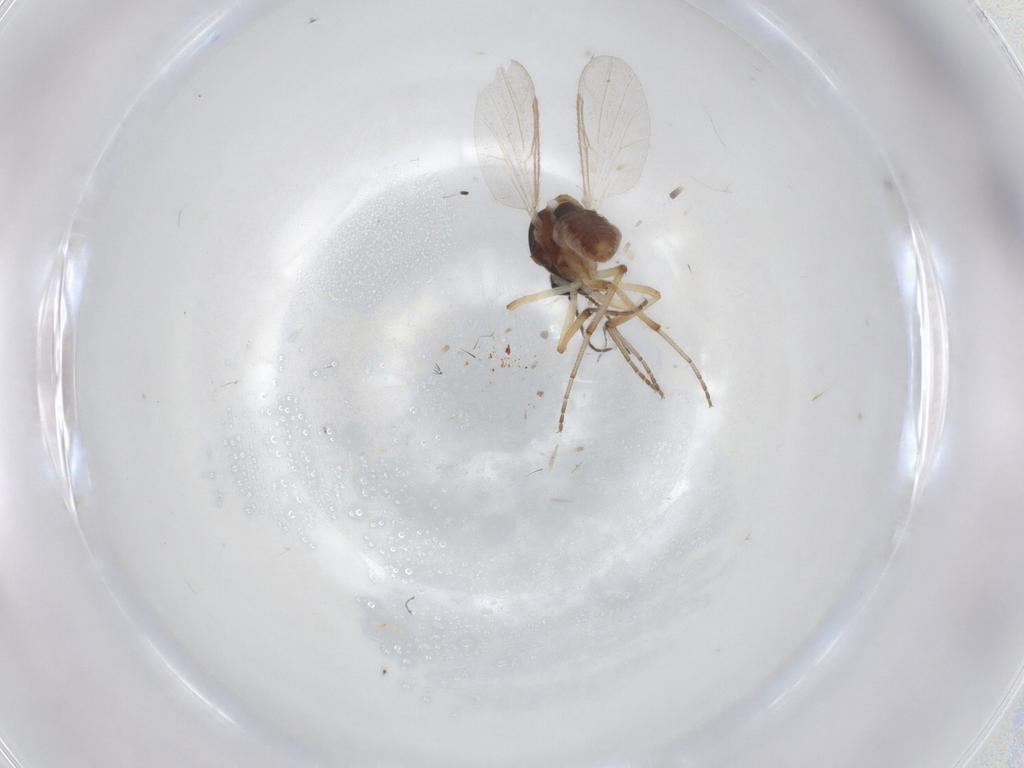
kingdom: Animalia
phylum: Arthropoda
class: Insecta
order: Diptera
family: Ceratopogonidae
